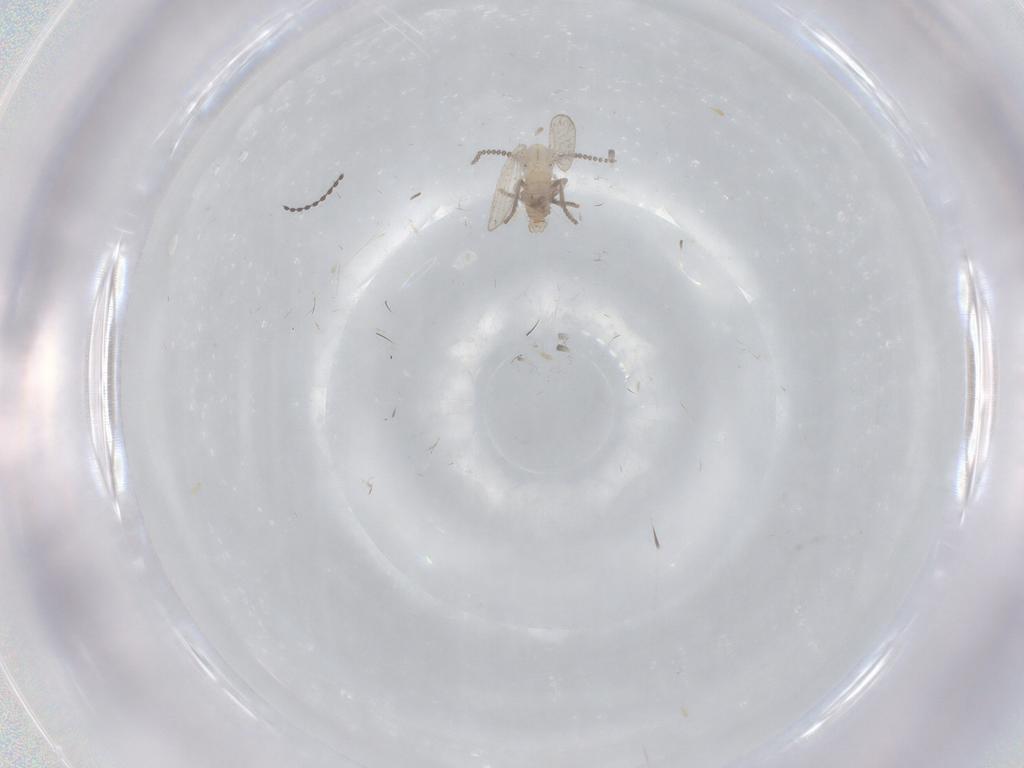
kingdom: Animalia
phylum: Arthropoda
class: Insecta
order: Diptera
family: Psychodidae
